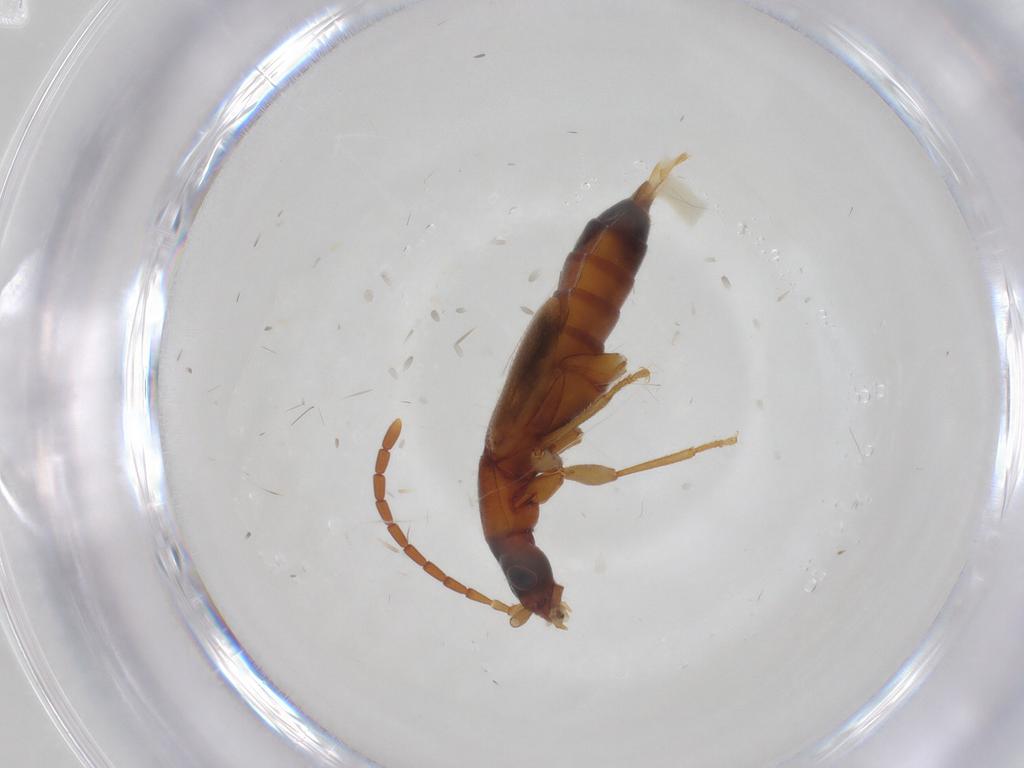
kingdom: Animalia
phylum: Arthropoda
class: Insecta
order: Coleoptera
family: Staphylinidae
